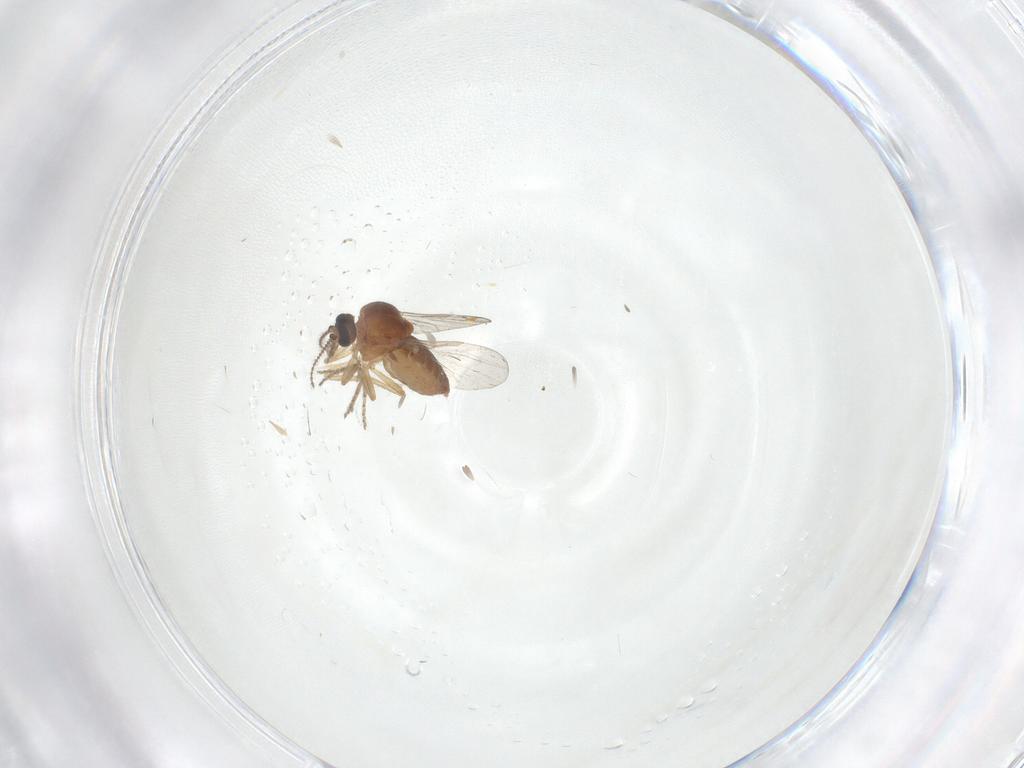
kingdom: Animalia
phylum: Arthropoda
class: Insecta
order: Diptera
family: Ceratopogonidae
